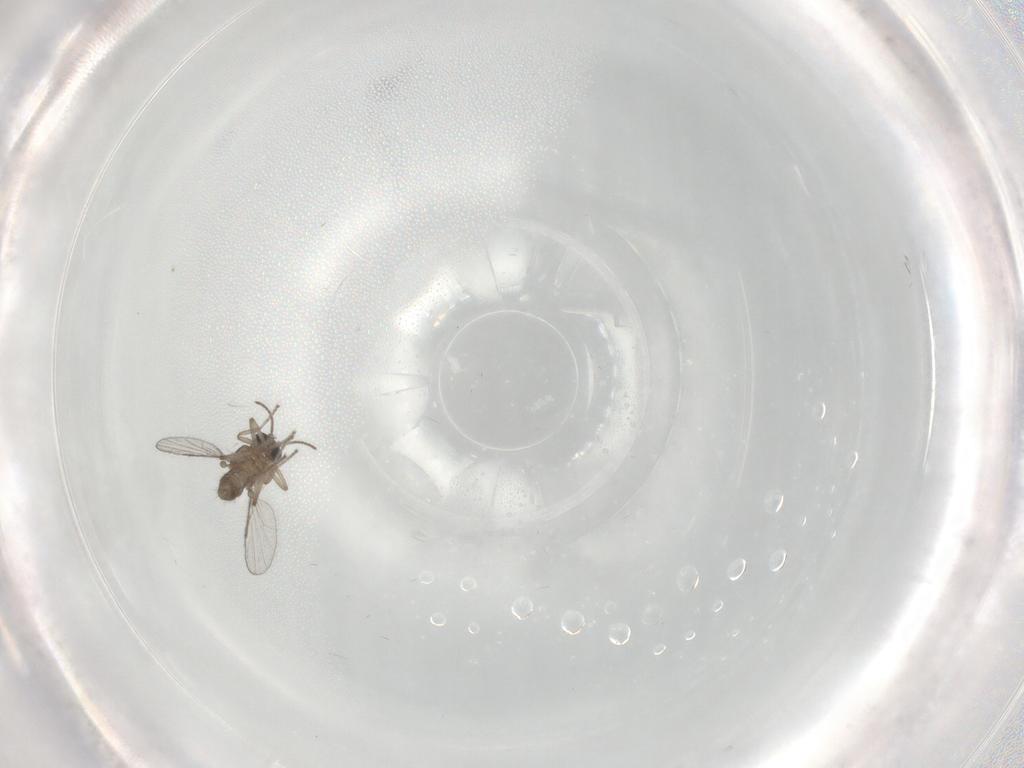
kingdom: Animalia
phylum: Arthropoda
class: Insecta
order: Diptera
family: Ceratopogonidae
